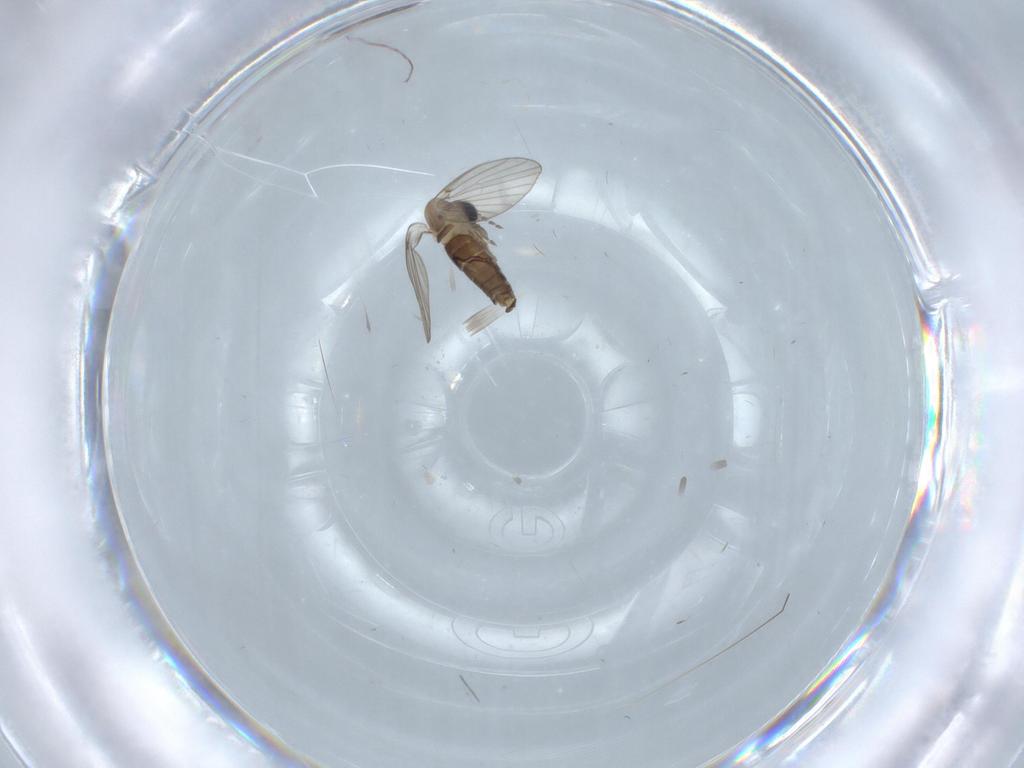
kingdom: Animalia
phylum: Arthropoda
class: Insecta
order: Diptera
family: Psychodidae
